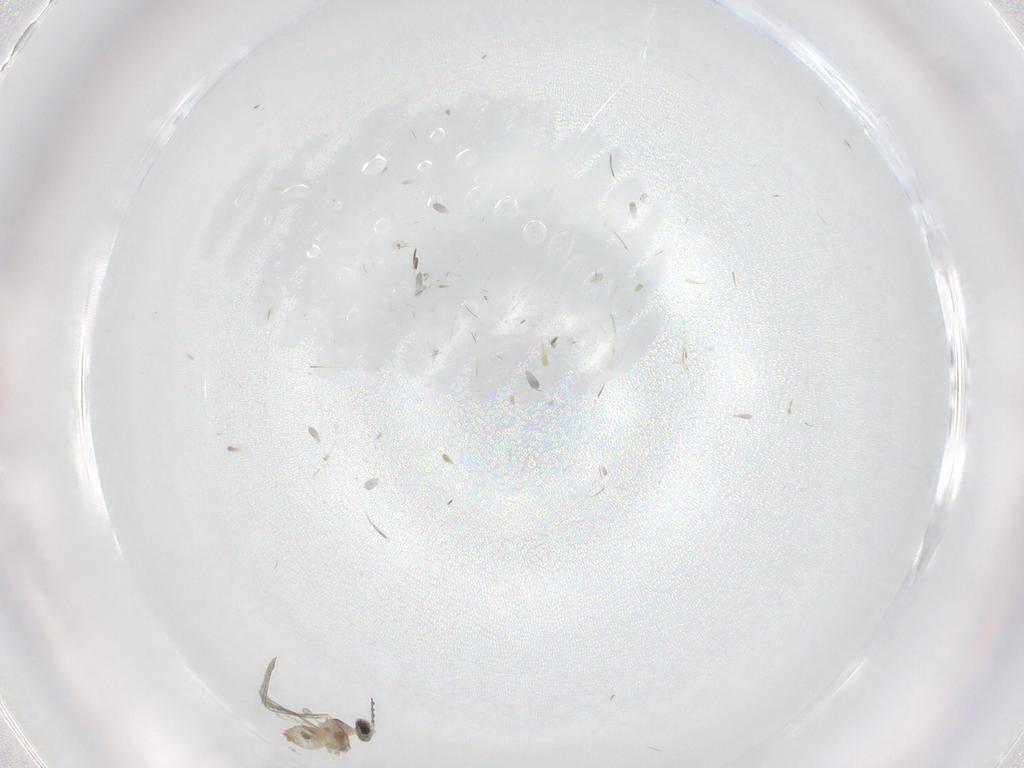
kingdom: Animalia
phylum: Arthropoda
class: Insecta
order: Diptera
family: Cecidomyiidae
